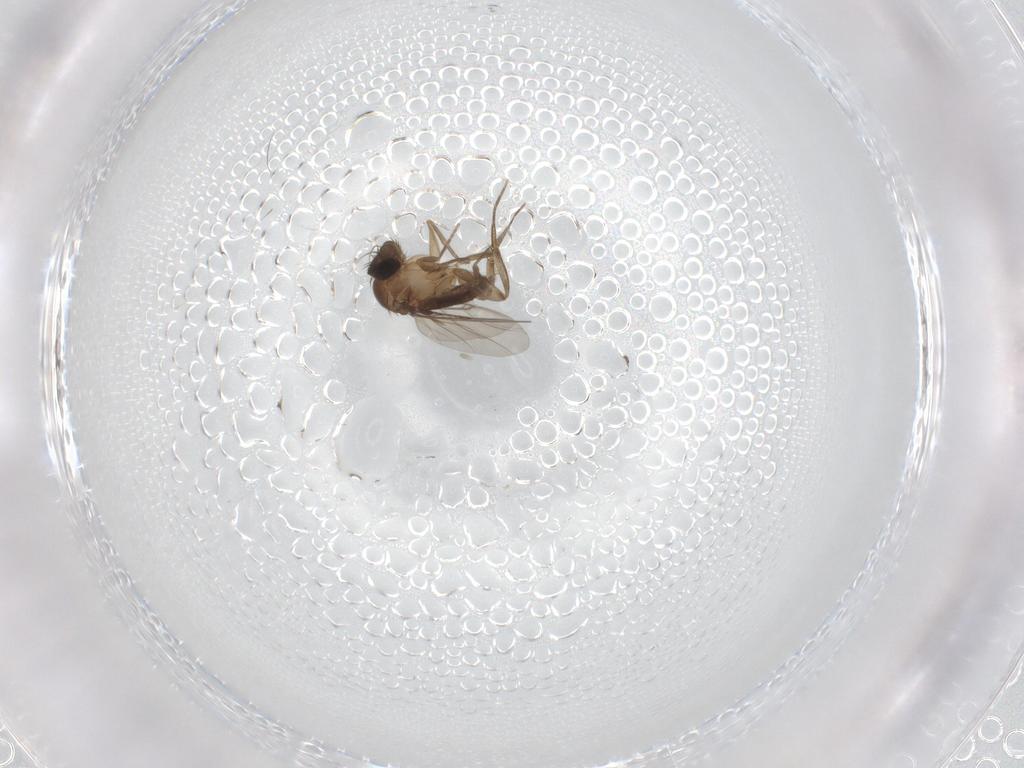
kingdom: Animalia
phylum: Arthropoda
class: Insecta
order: Diptera
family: Phoridae
